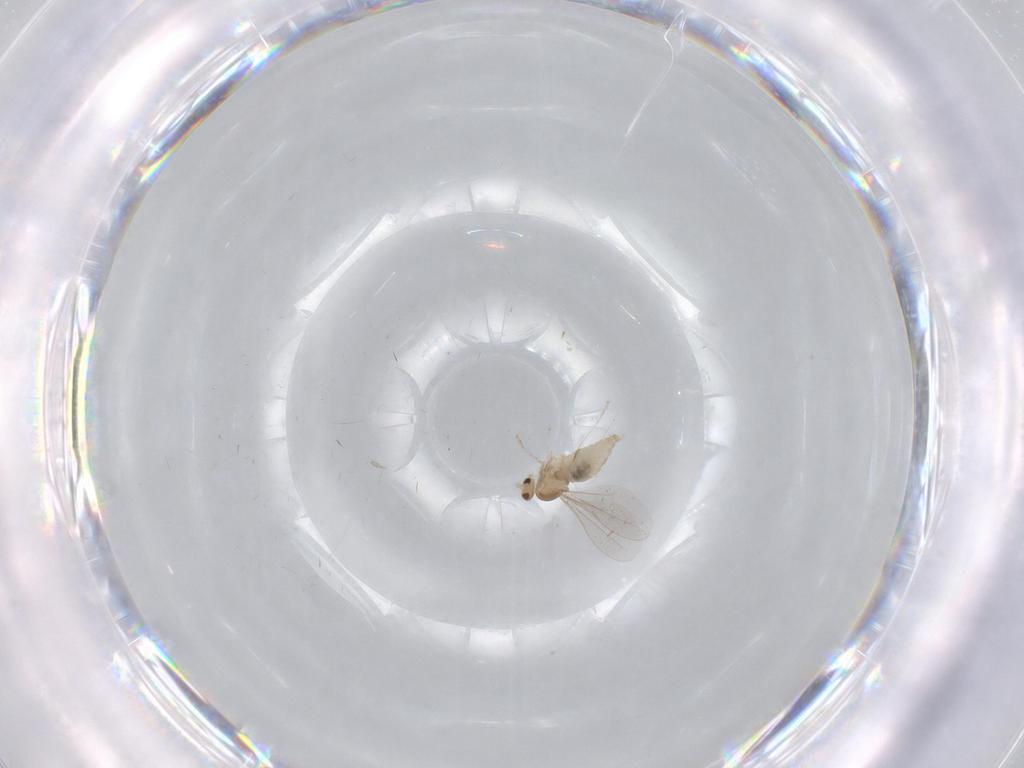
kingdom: Animalia
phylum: Arthropoda
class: Insecta
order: Diptera
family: Cecidomyiidae
